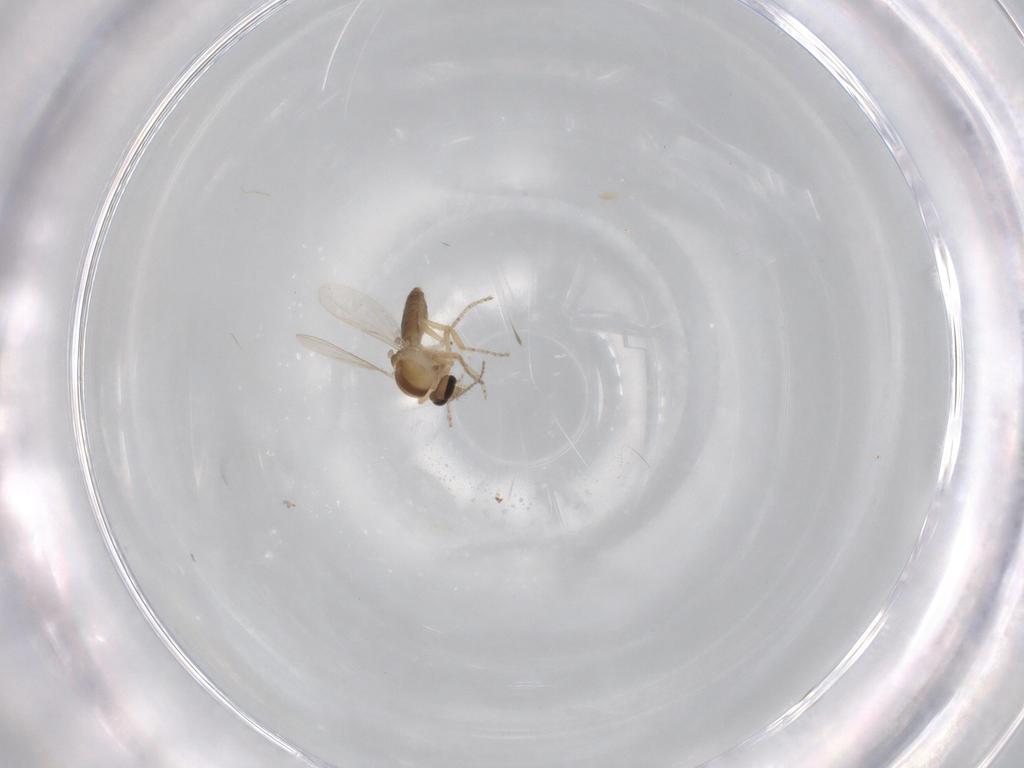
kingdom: Animalia
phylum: Arthropoda
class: Insecta
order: Diptera
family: Ceratopogonidae
